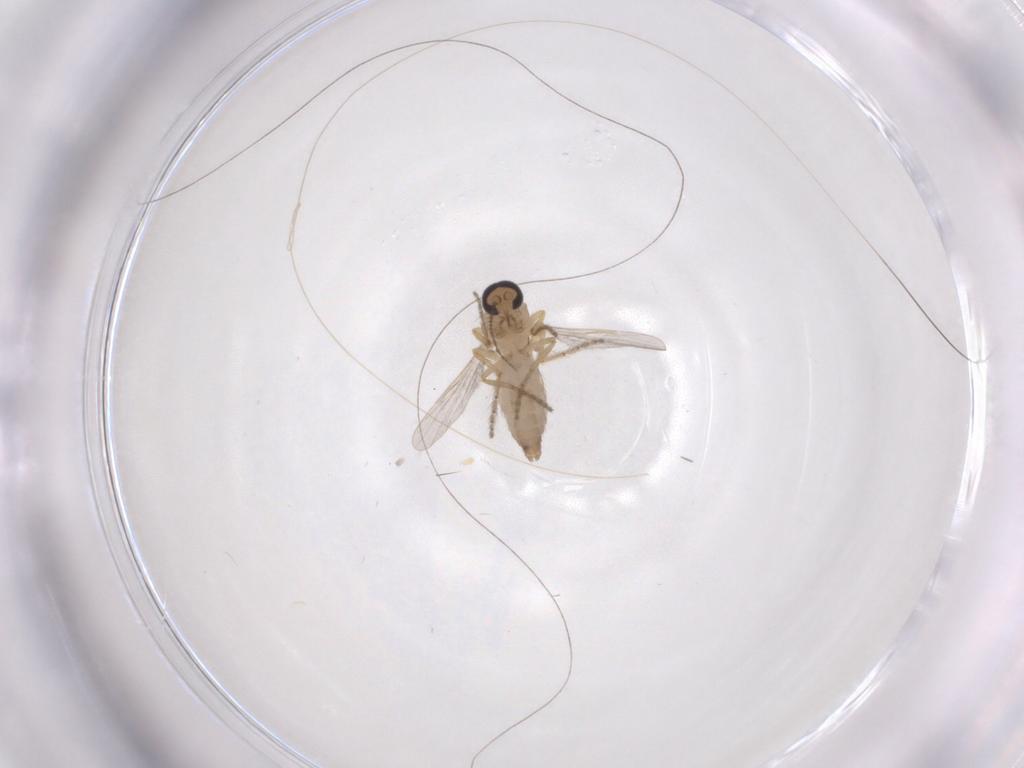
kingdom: Animalia
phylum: Arthropoda
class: Insecta
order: Diptera
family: Ceratopogonidae
